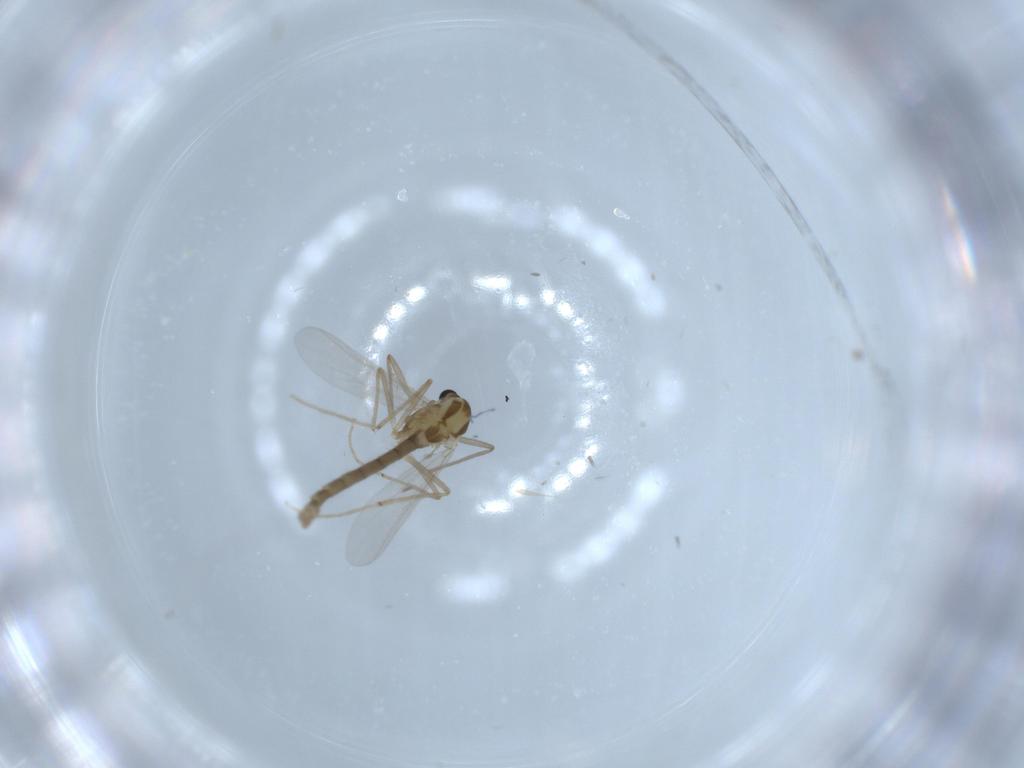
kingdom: Animalia
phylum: Arthropoda
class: Insecta
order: Diptera
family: Chironomidae
